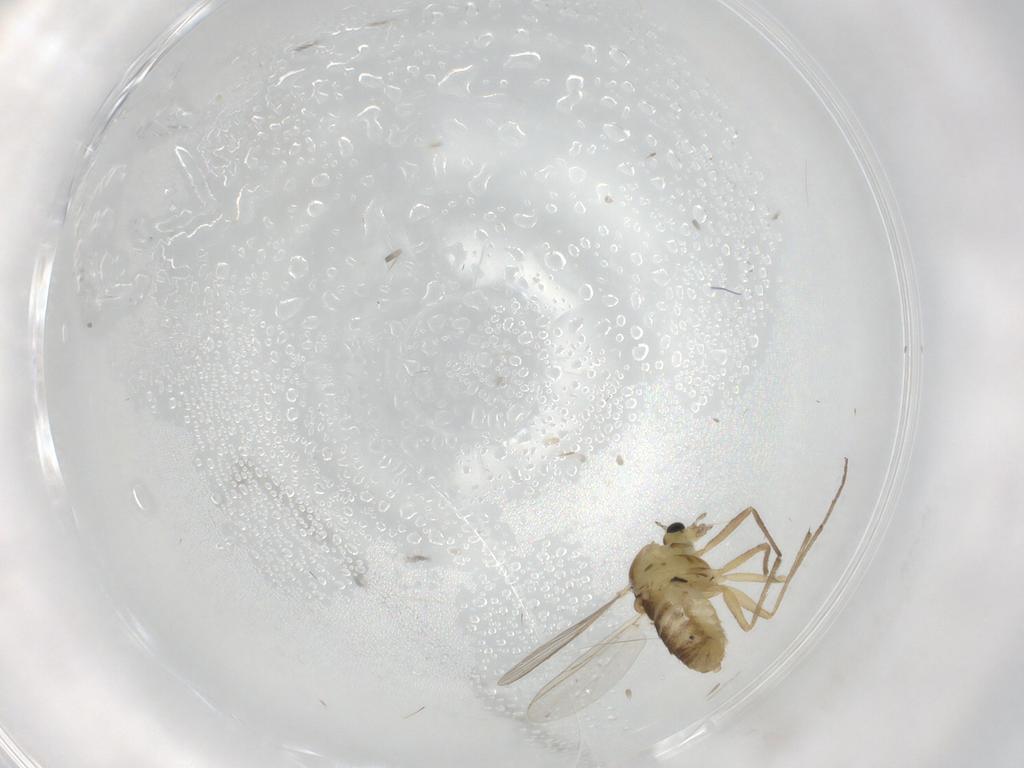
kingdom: Animalia
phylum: Arthropoda
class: Insecta
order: Diptera
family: Chironomidae
